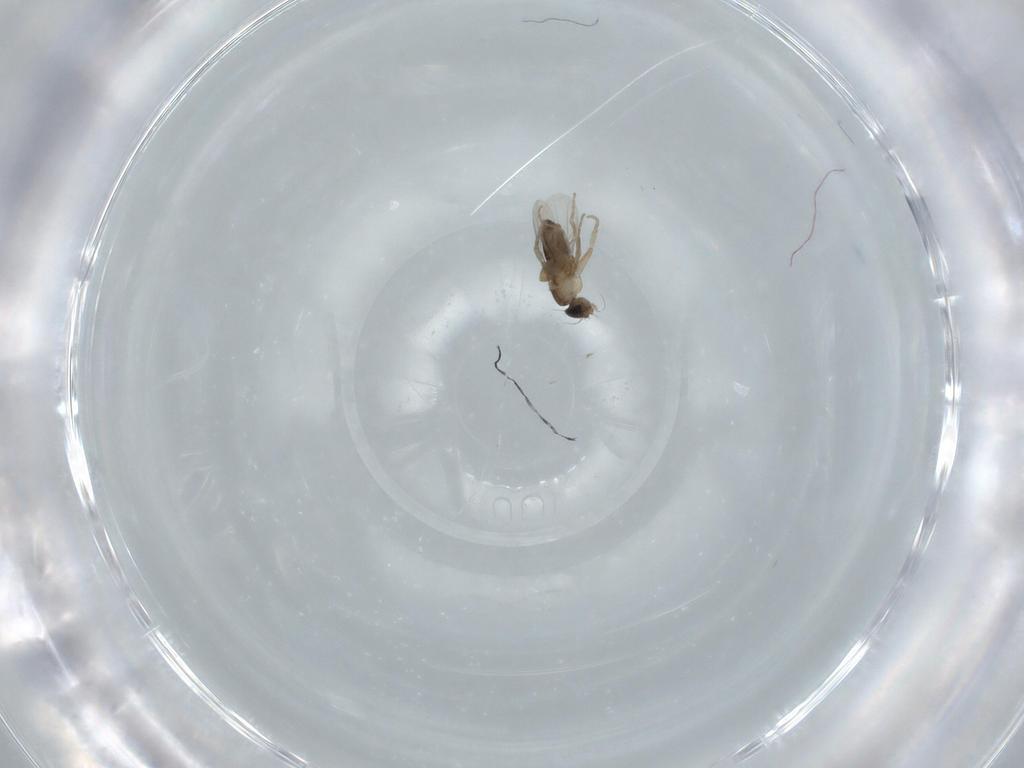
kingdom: Animalia
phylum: Arthropoda
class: Insecta
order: Diptera
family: Phoridae
